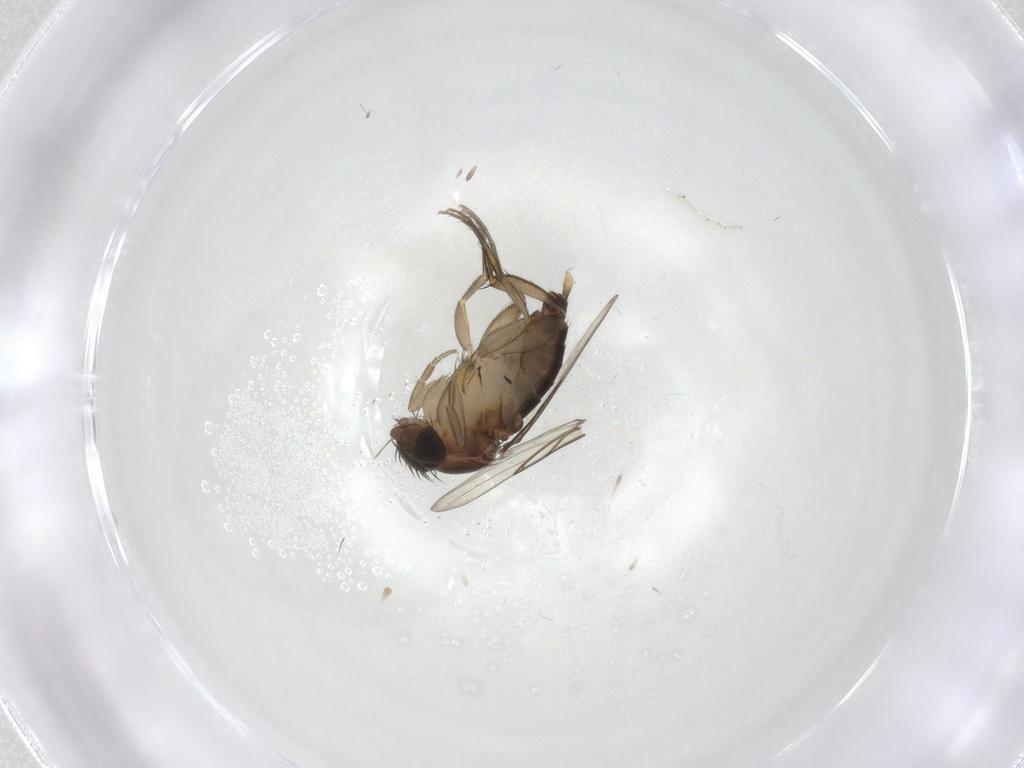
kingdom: Animalia
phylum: Arthropoda
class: Insecta
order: Diptera
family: Phoridae
